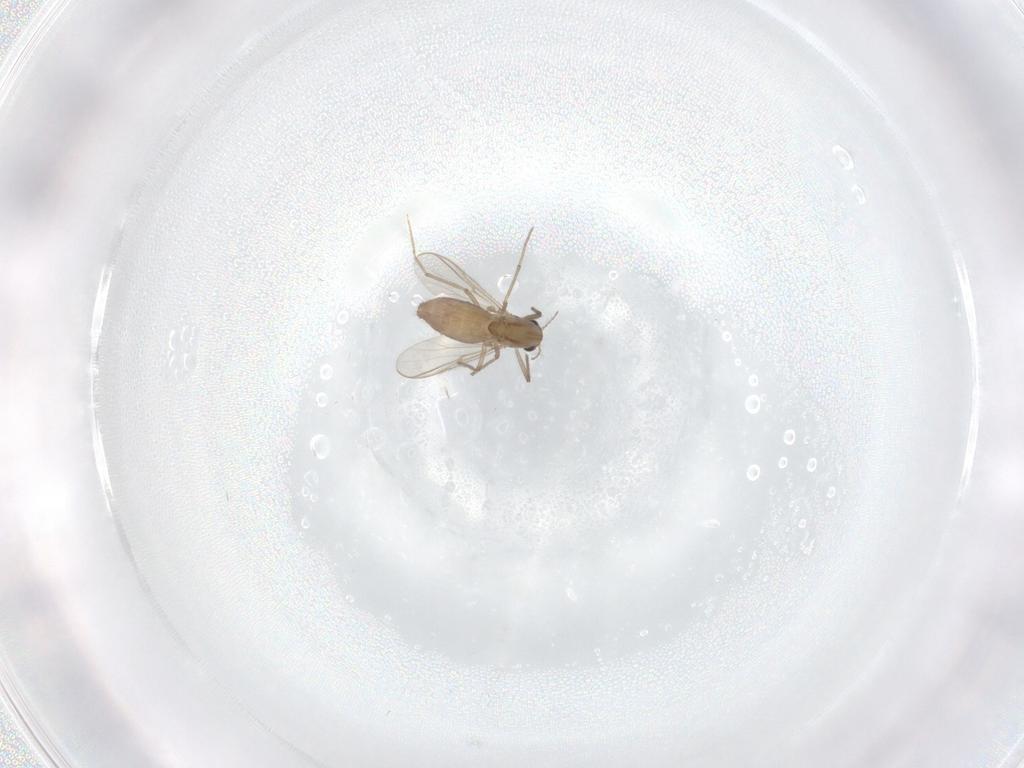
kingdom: Animalia
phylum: Arthropoda
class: Insecta
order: Diptera
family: Chironomidae
